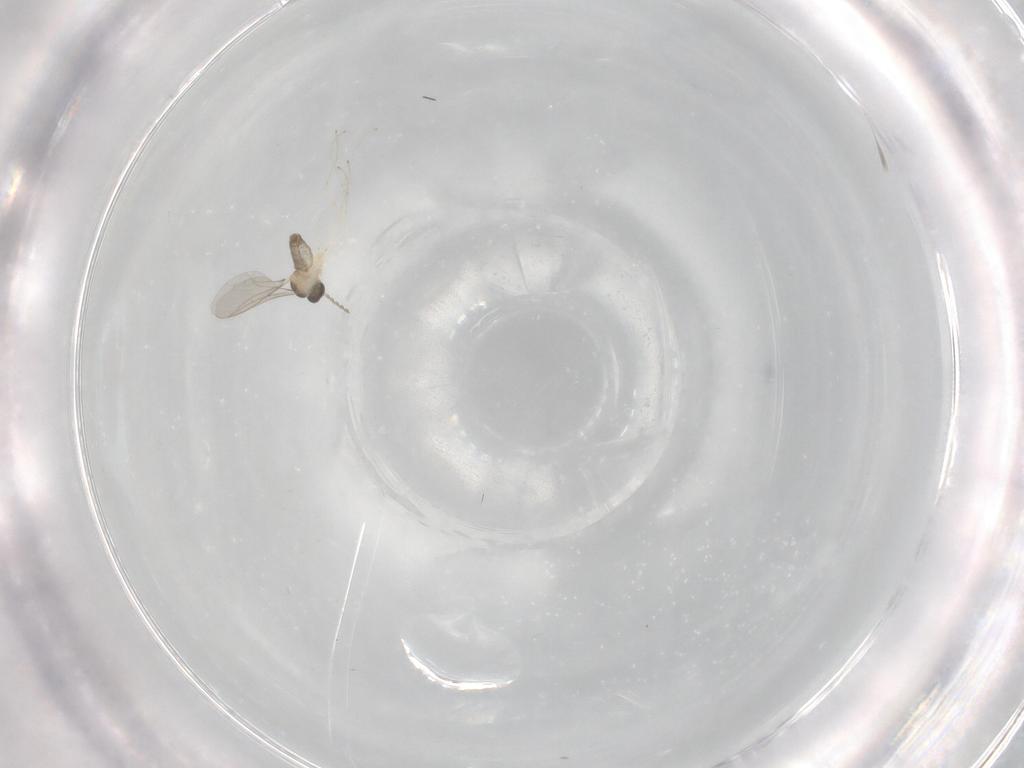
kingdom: Animalia
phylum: Arthropoda
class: Insecta
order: Diptera
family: Cecidomyiidae
